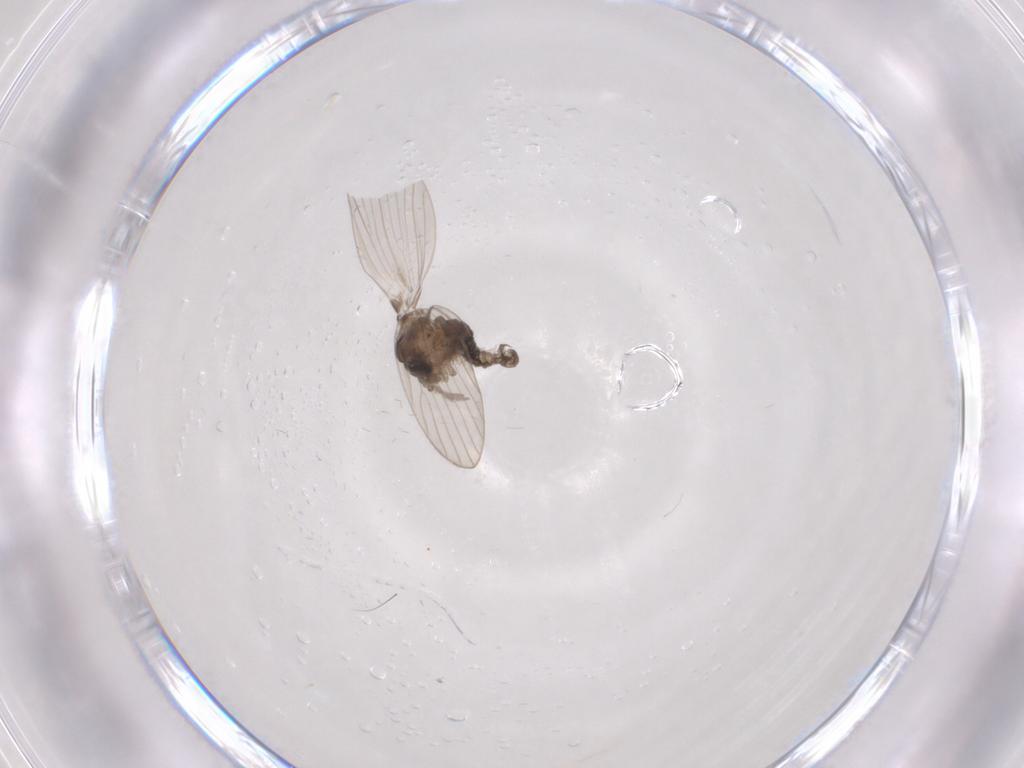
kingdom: Animalia
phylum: Arthropoda
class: Insecta
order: Diptera
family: Psychodidae
